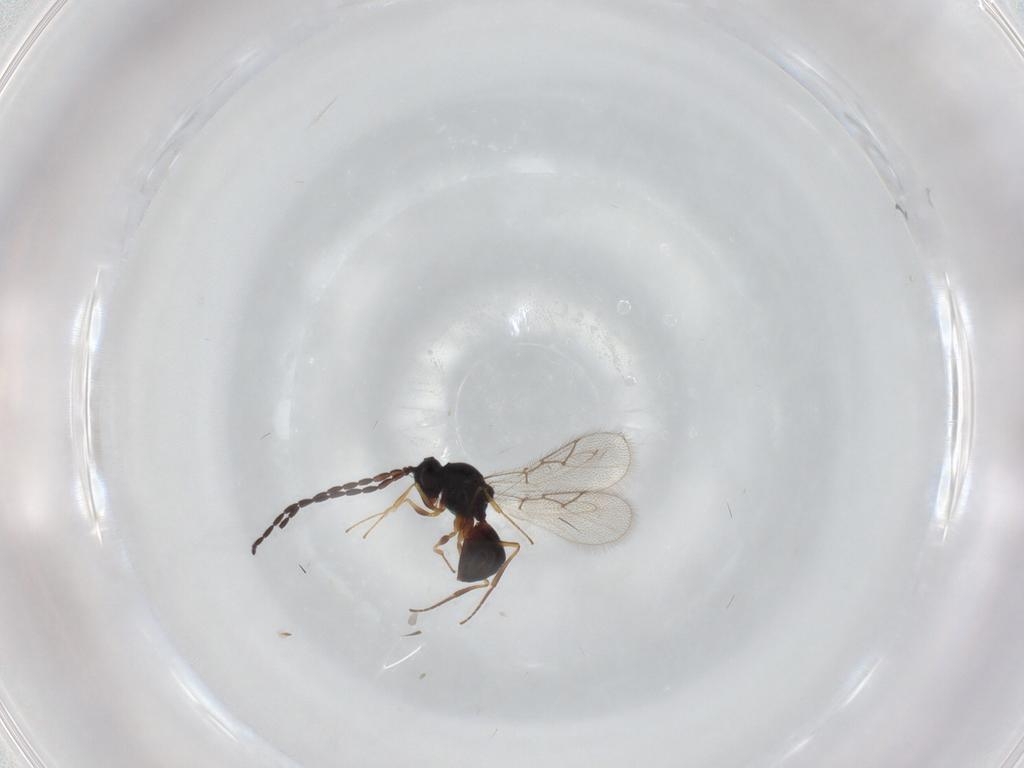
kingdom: Animalia
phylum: Arthropoda
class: Insecta
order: Hymenoptera
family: Figitidae
